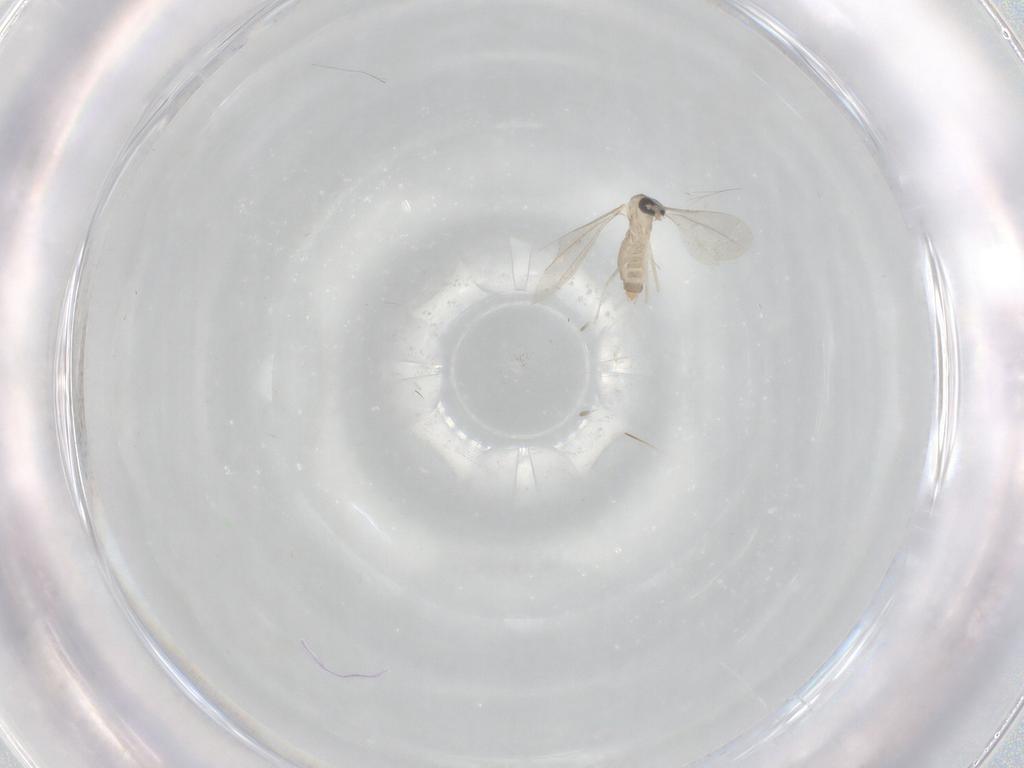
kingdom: Animalia
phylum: Arthropoda
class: Insecta
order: Diptera
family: Cecidomyiidae
